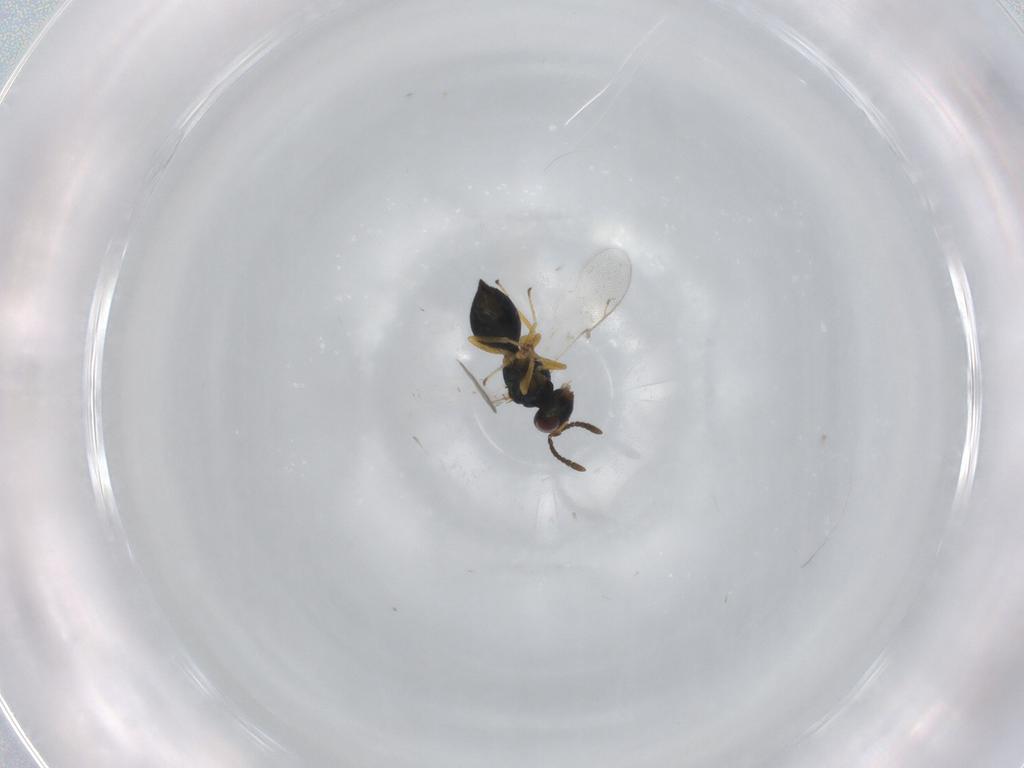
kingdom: Animalia
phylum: Arthropoda
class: Insecta
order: Hymenoptera
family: Pteromalidae
